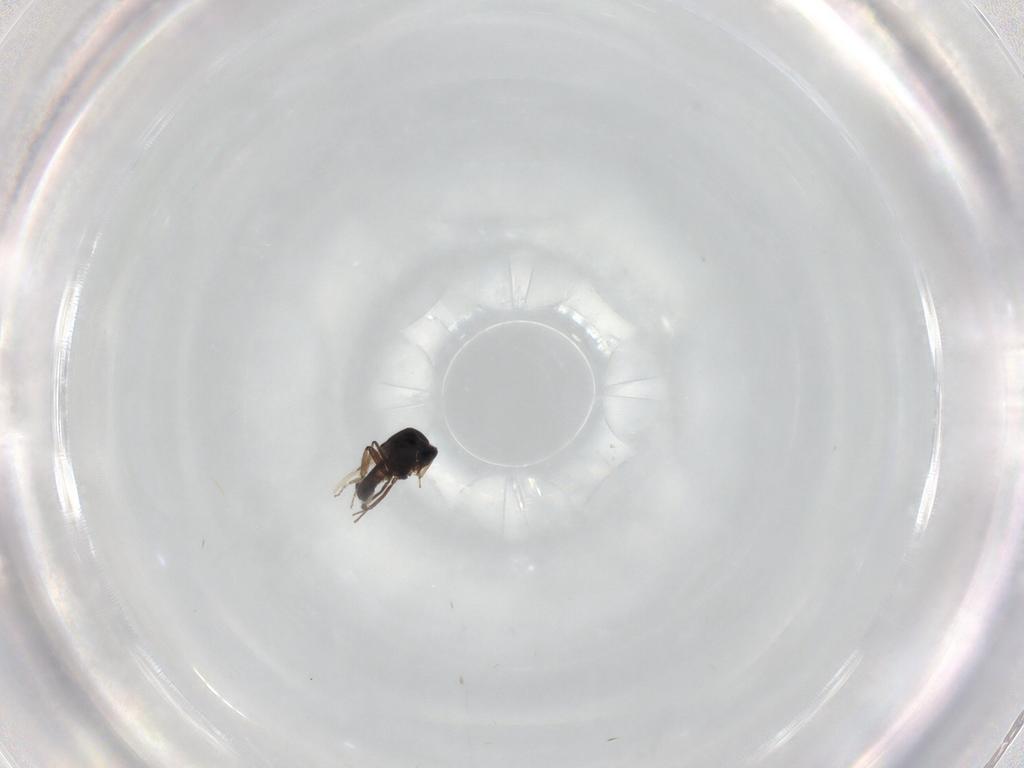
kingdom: Animalia
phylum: Arthropoda
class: Insecta
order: Diptera
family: Ceratopogonidae
